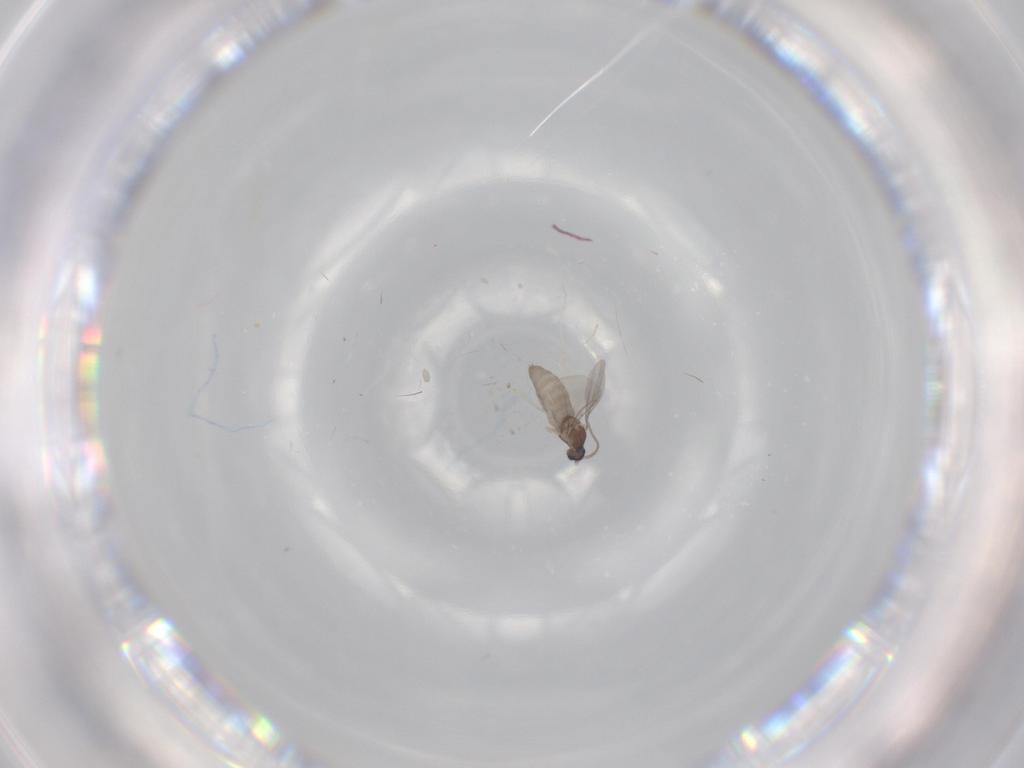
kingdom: Animalia
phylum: Arthropoda
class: Insecta
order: Diptera
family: Cecidomyiidae
